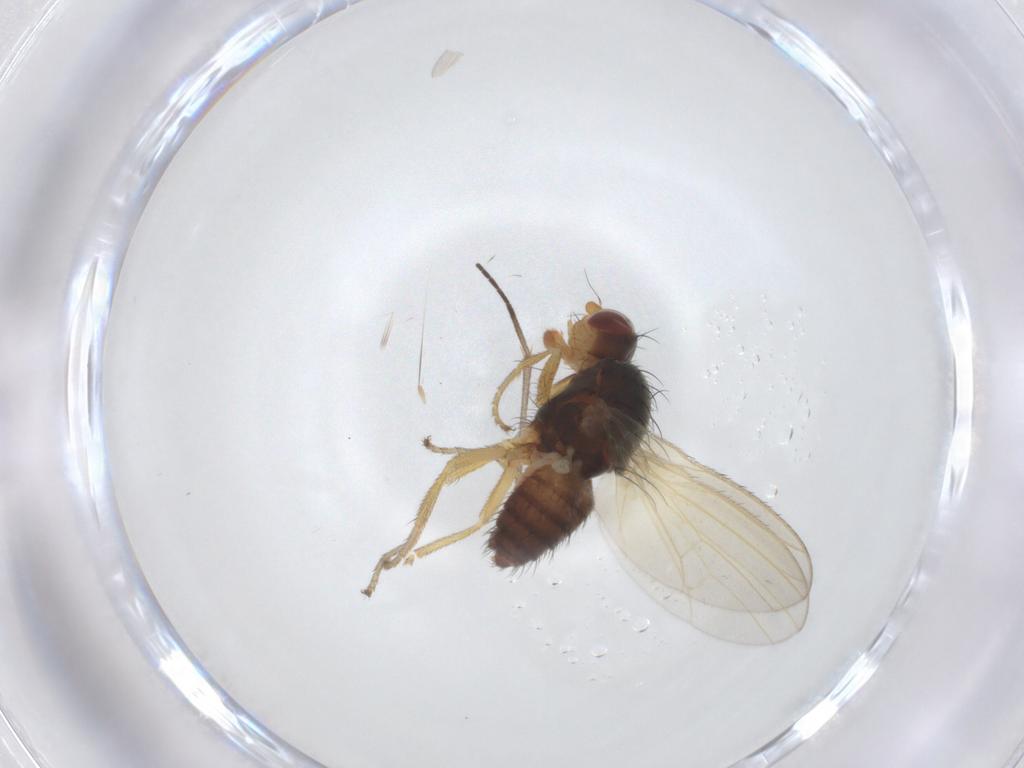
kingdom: Animalia
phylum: Arthropoda
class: Insecta
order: Diptera
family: Heleomyzidae
